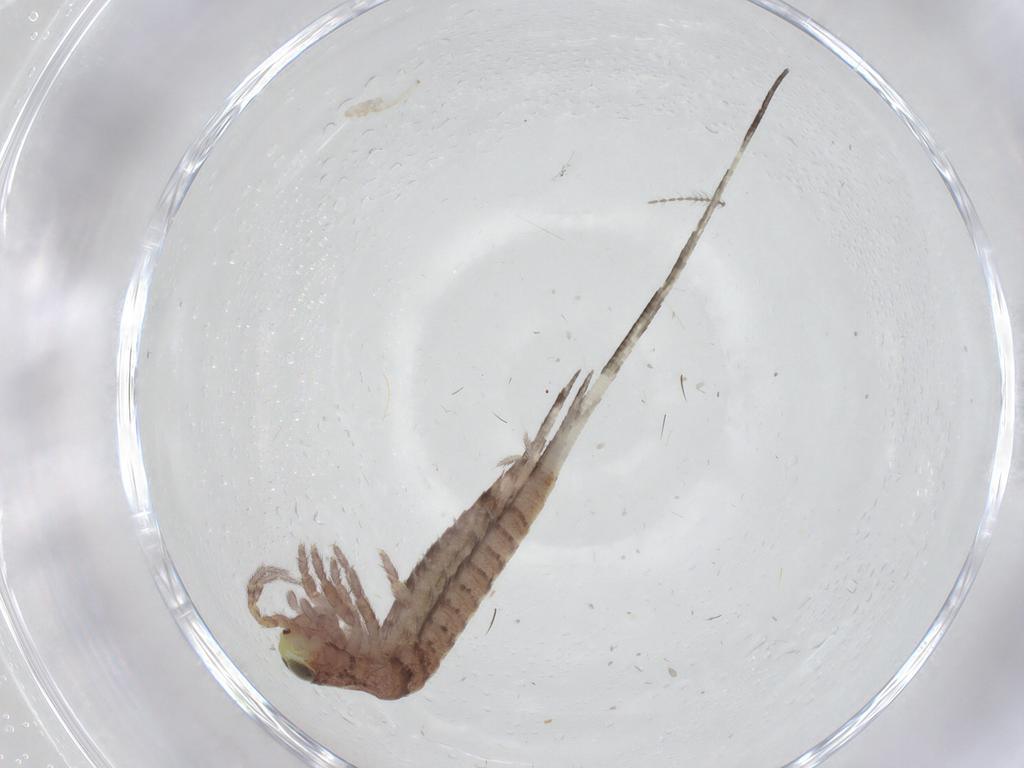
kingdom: Animalia
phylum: Arthropoda
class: Insecta
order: Archaeognatha
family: Machilidae
